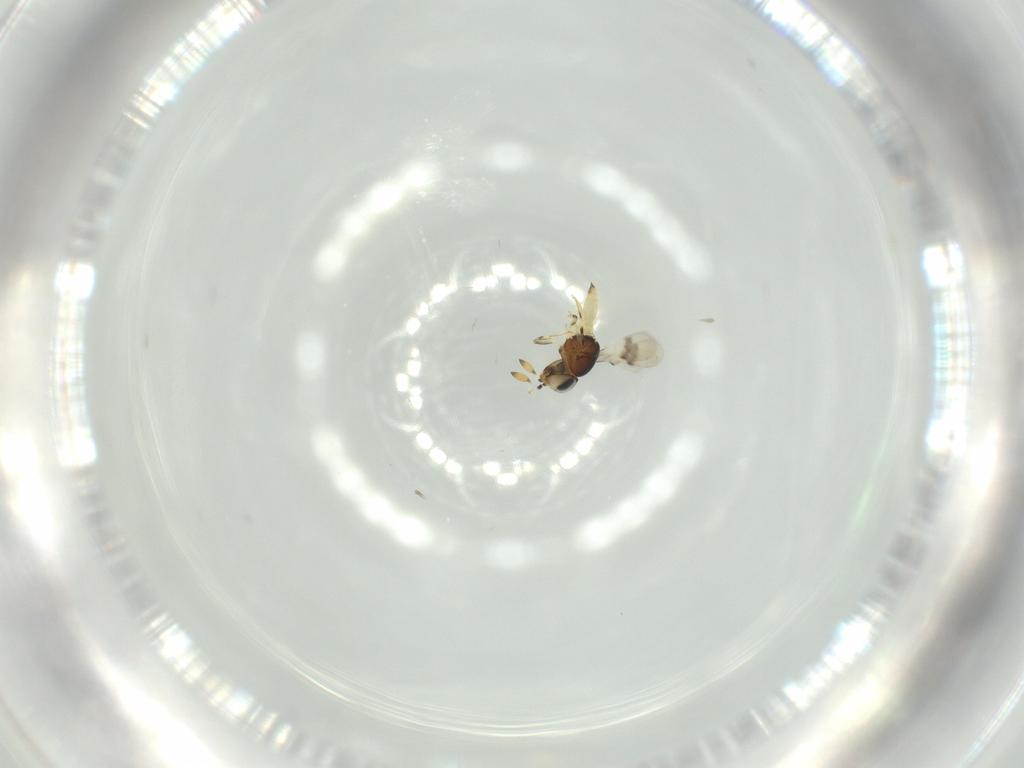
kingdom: Animalia
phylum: Arthropoda
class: Insecta
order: Hymenoptera
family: Scelionidae
